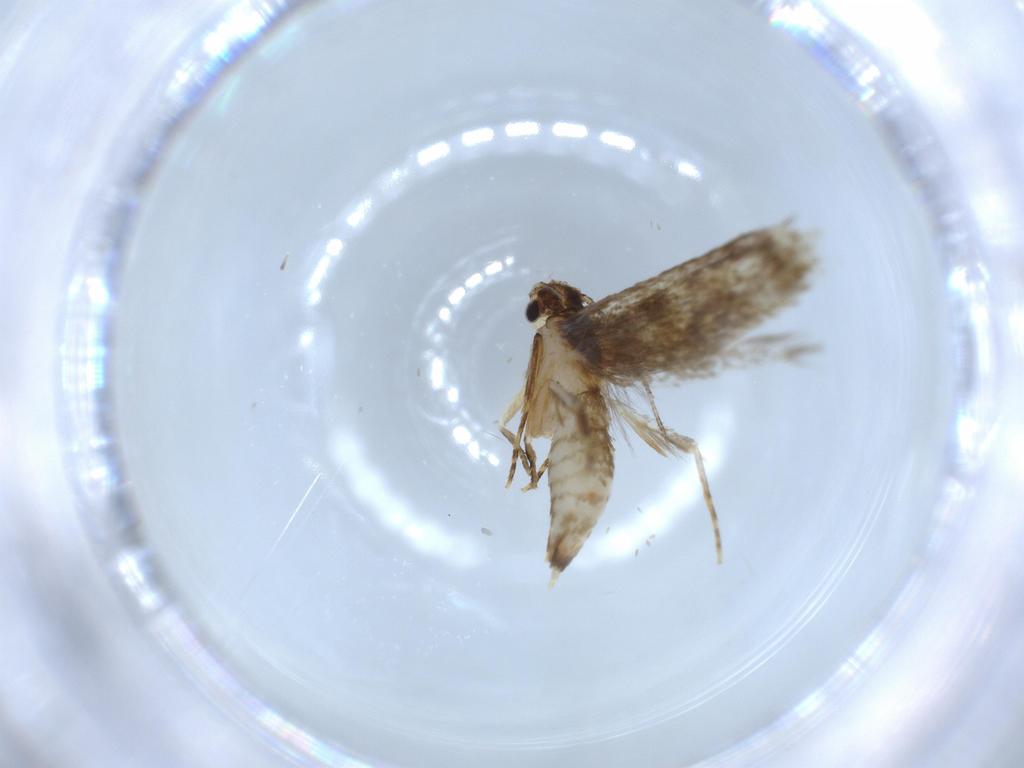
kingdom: Animalia
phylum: Arthropoda
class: Insecta
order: Lepidoptera
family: Tineidae
